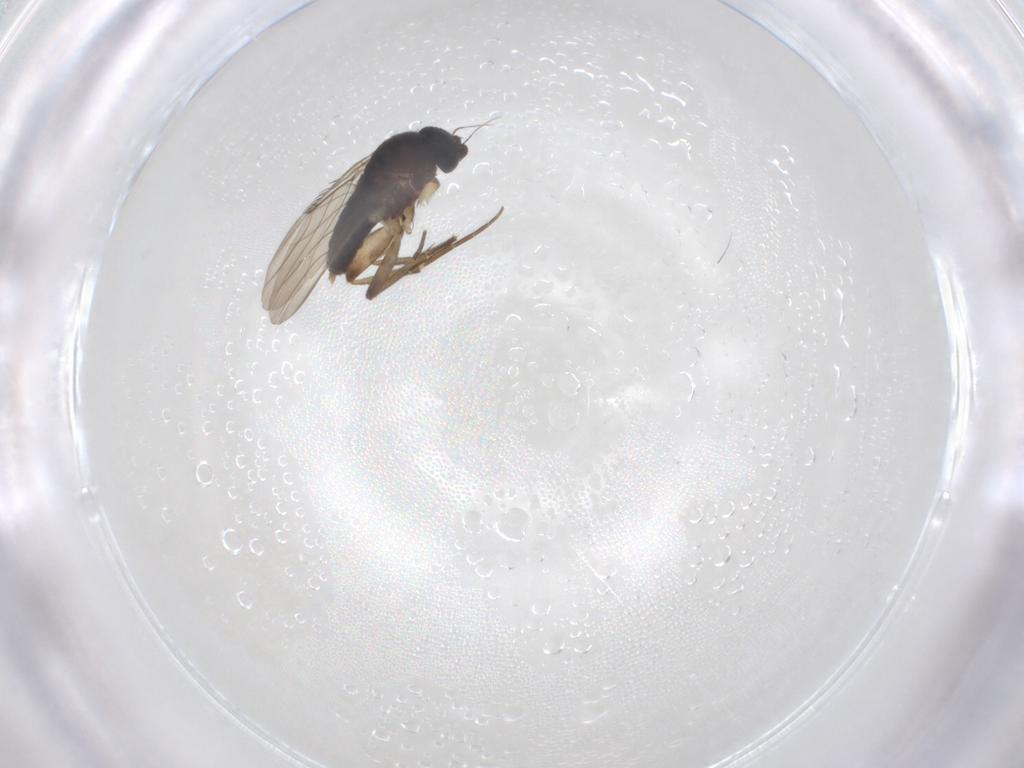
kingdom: Animalia
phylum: Arthropoda
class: Insecta
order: Diptera
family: Phoridae
